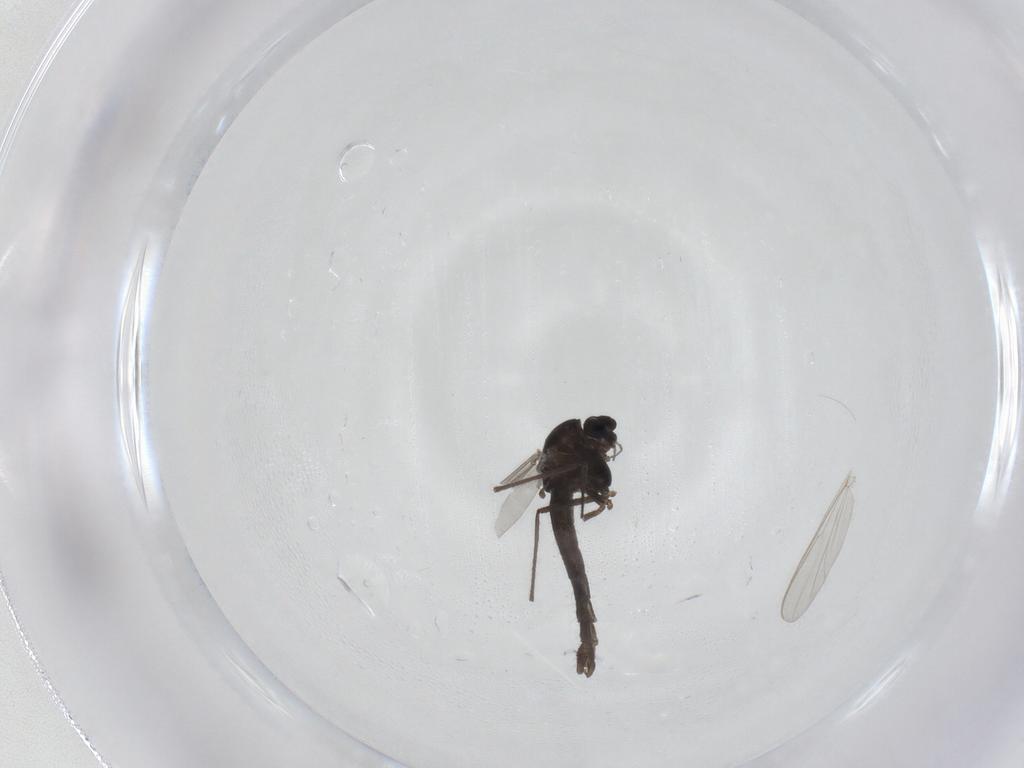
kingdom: Animalia
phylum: Arthropoda
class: Insecta
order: Diptera
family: Chironomidae
